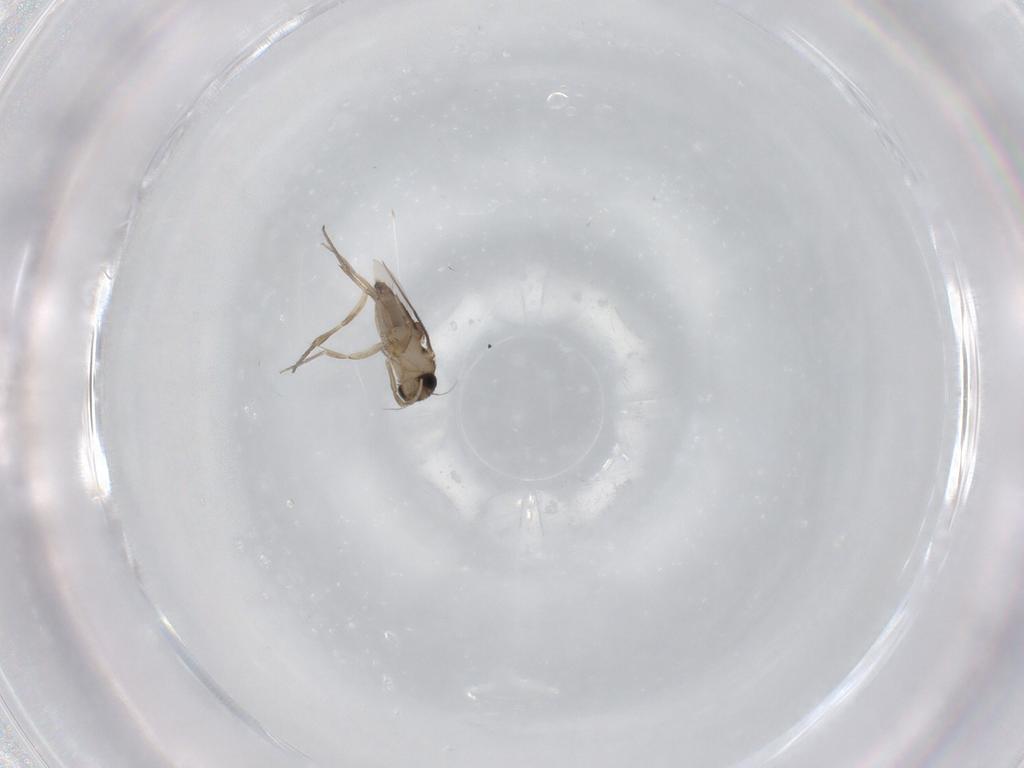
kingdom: Animalia
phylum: Arthropoda
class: Insecta
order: Diptera
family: Phoridae
